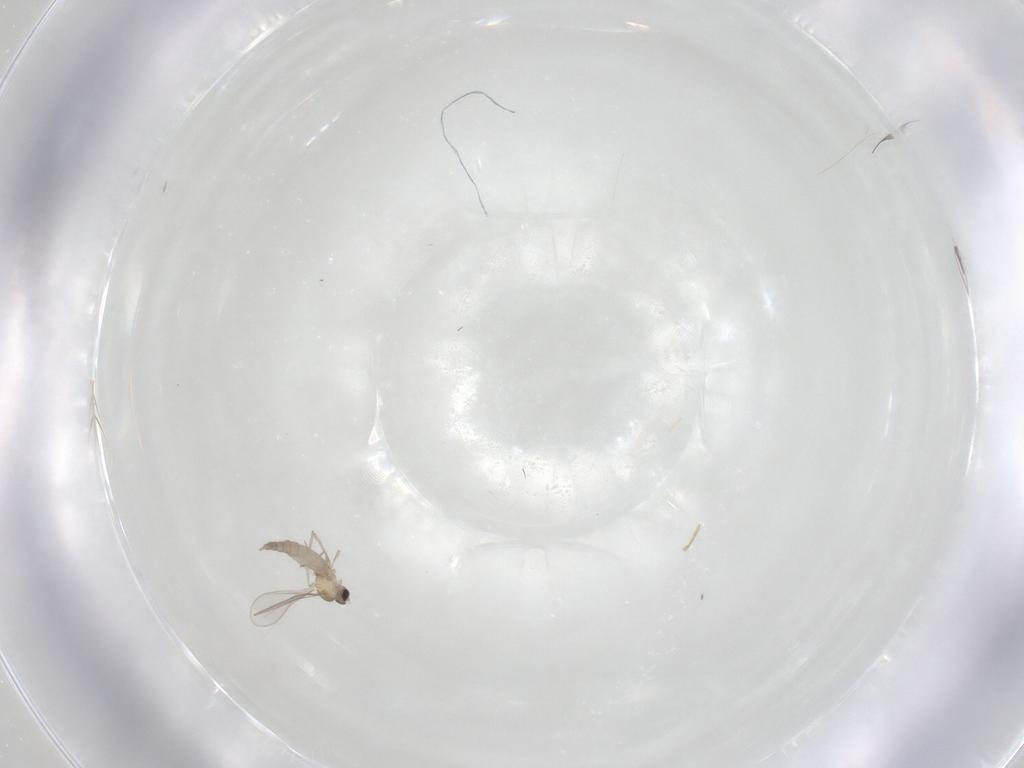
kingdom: Animalia
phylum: Arthropoda
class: Insecta
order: Diptera
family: Cecidomyiidae
